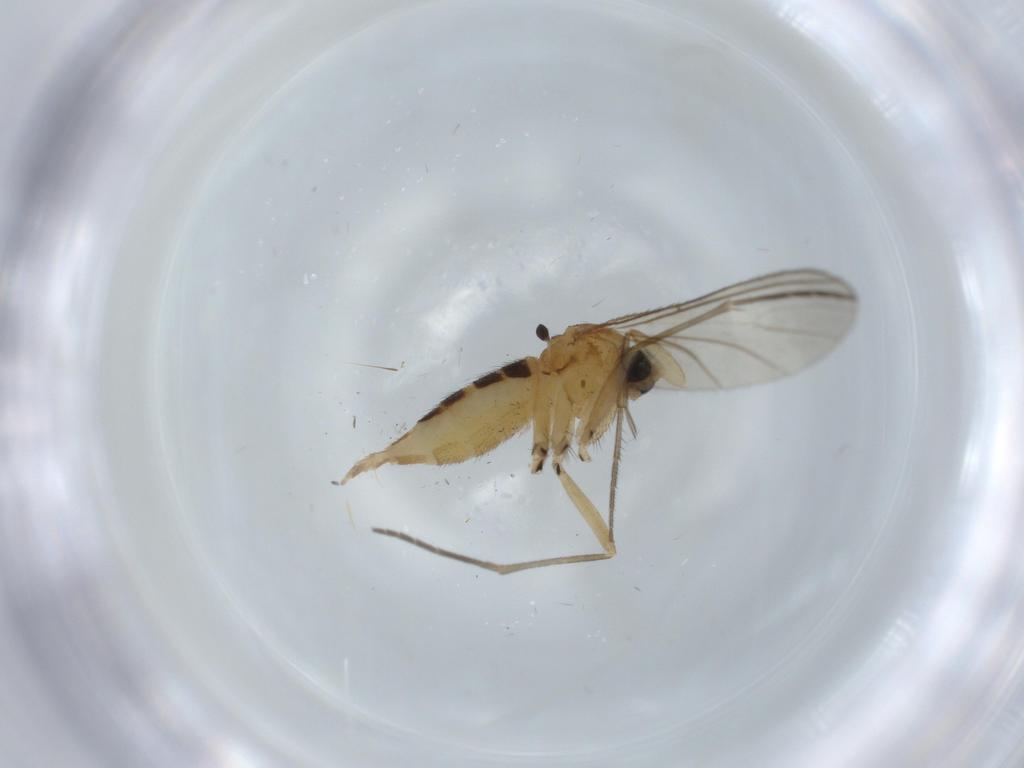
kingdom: Animalia
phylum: Arthropoda
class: Insecta
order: Diptera
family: Sciaridae
